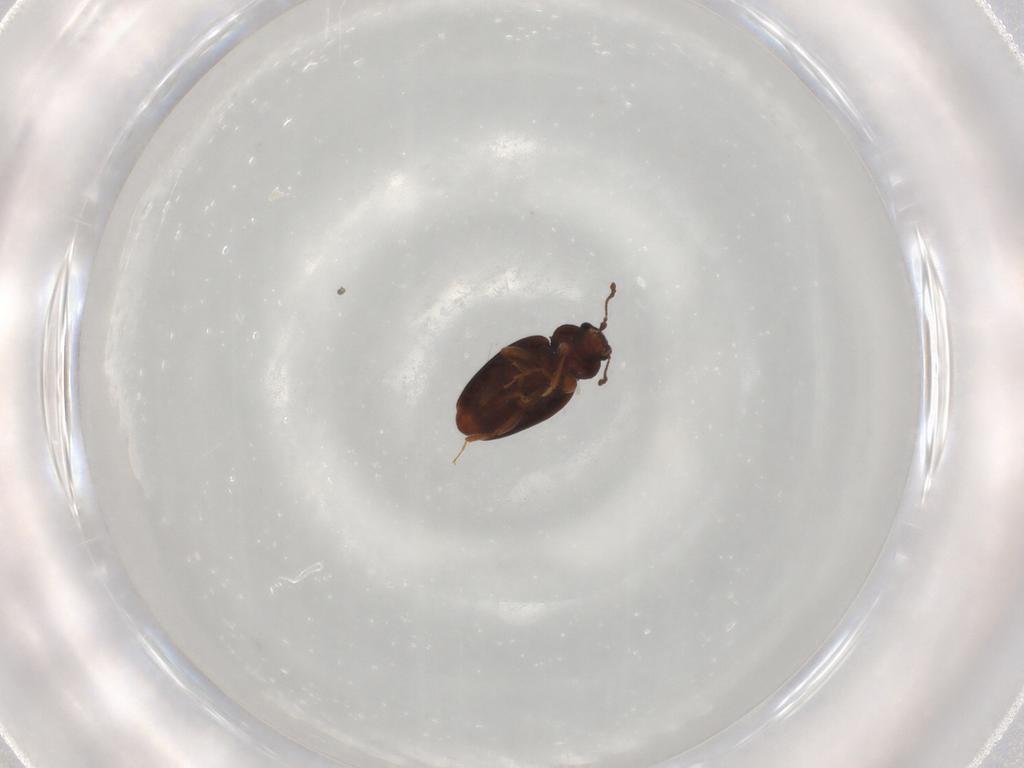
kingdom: Animalia
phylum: Arthropoda
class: Insecta
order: Coleoptera
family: Latridiidae
